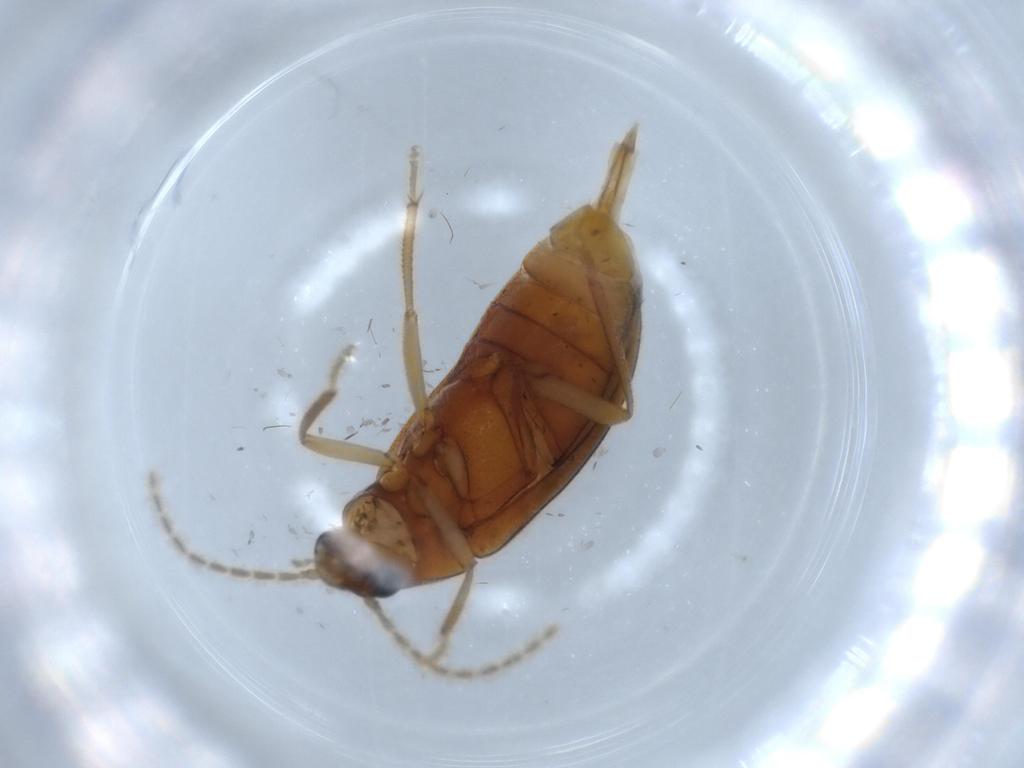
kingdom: Animalia
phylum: Arthropoda
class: Insecta
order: Coleoptera
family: Ptilodactylidae
